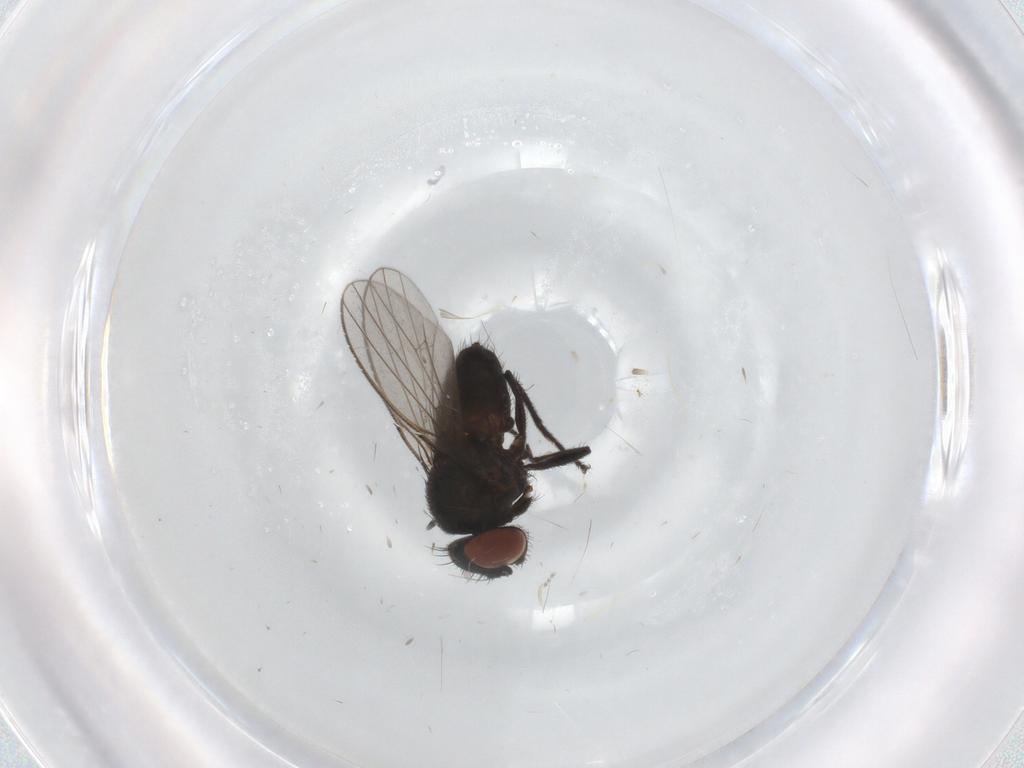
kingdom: Animalia
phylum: Arthropoda
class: Insecta
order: Diptera
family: Milichiidae
